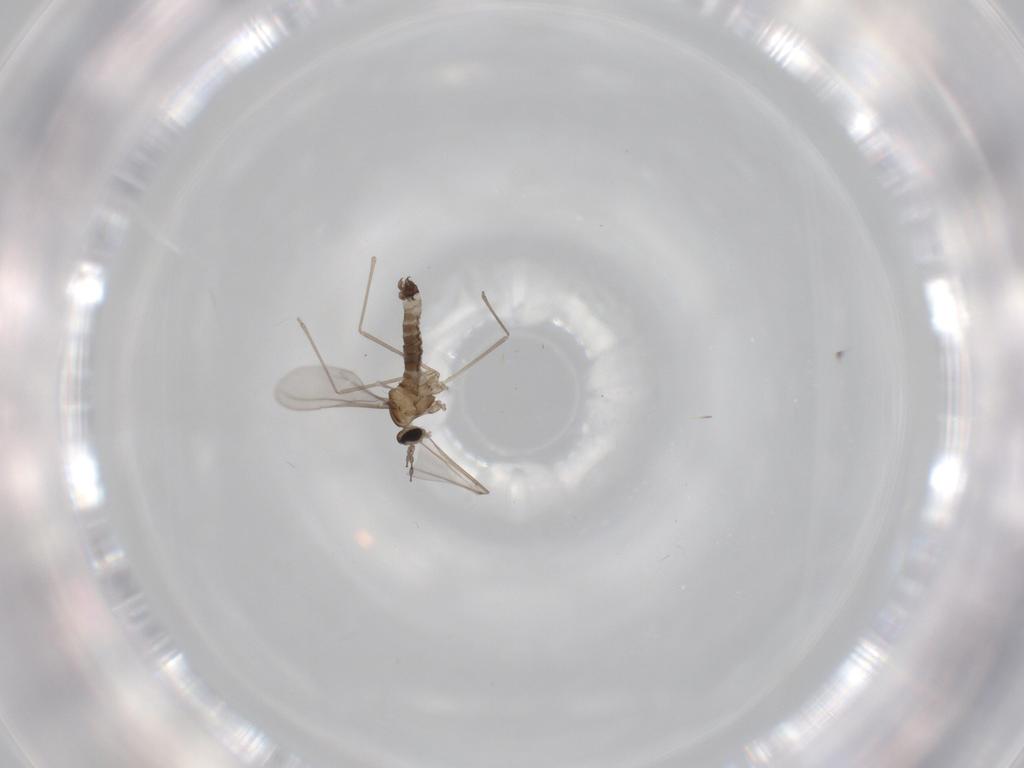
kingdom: Animalia
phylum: Arthropoda
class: Insecta
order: Diptera
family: Cecidomyiidae
